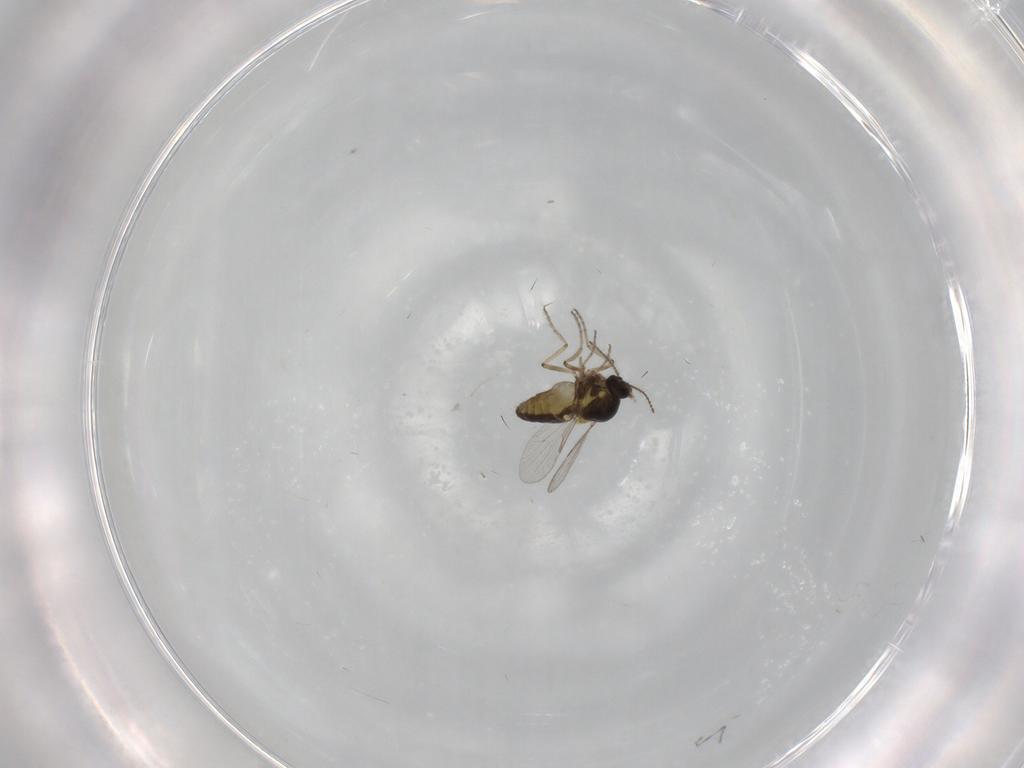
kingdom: Animalia
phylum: Arthropoda
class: Insecta
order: Diptera
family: Ceratopogonidae
